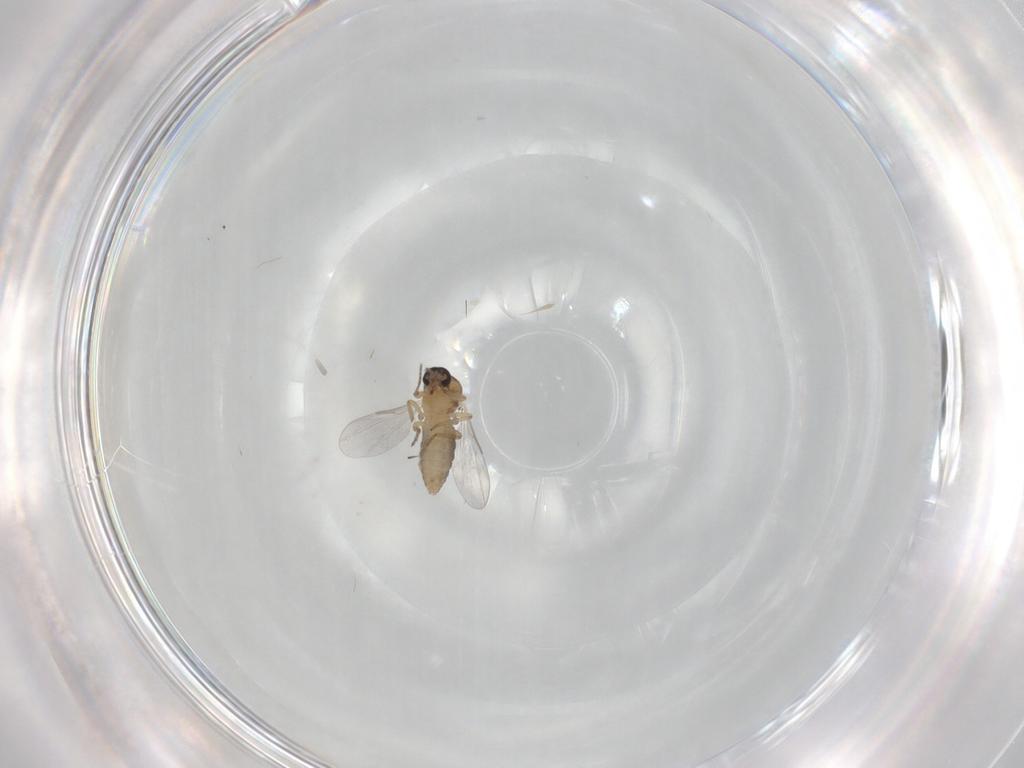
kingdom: Animalia
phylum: Arthropoda
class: Insecta
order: Diptera
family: Ceratopogonidae
